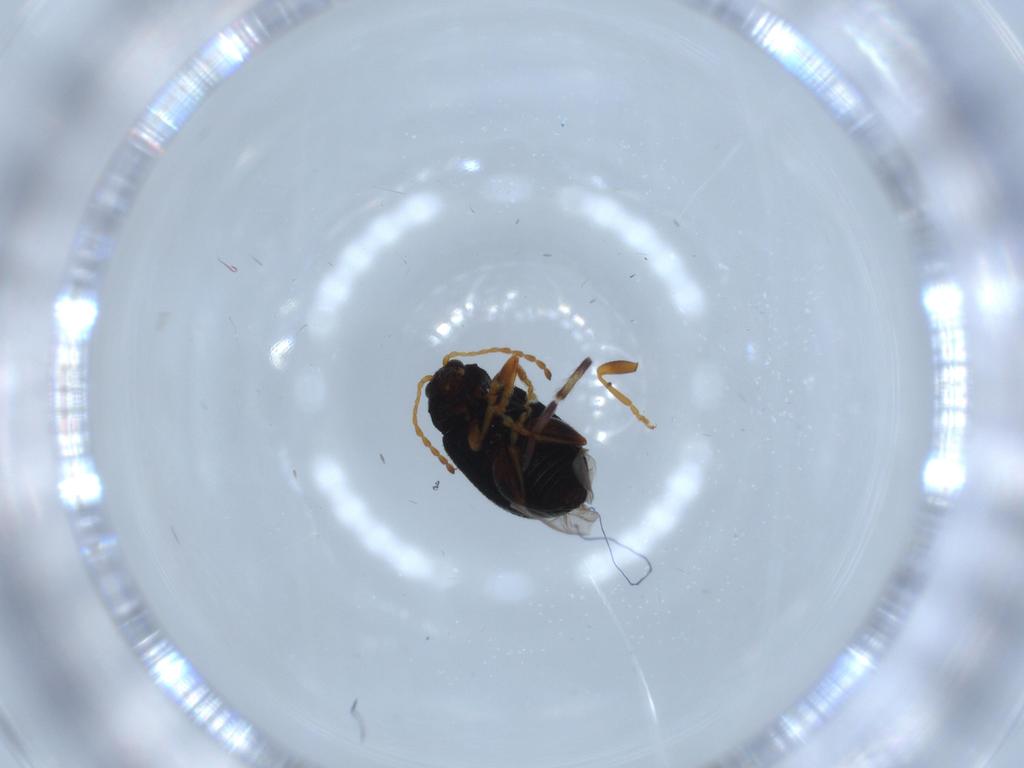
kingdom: Animalia
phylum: Arthropoda
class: Insecta
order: Coleoptera
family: Chrysomelidae
